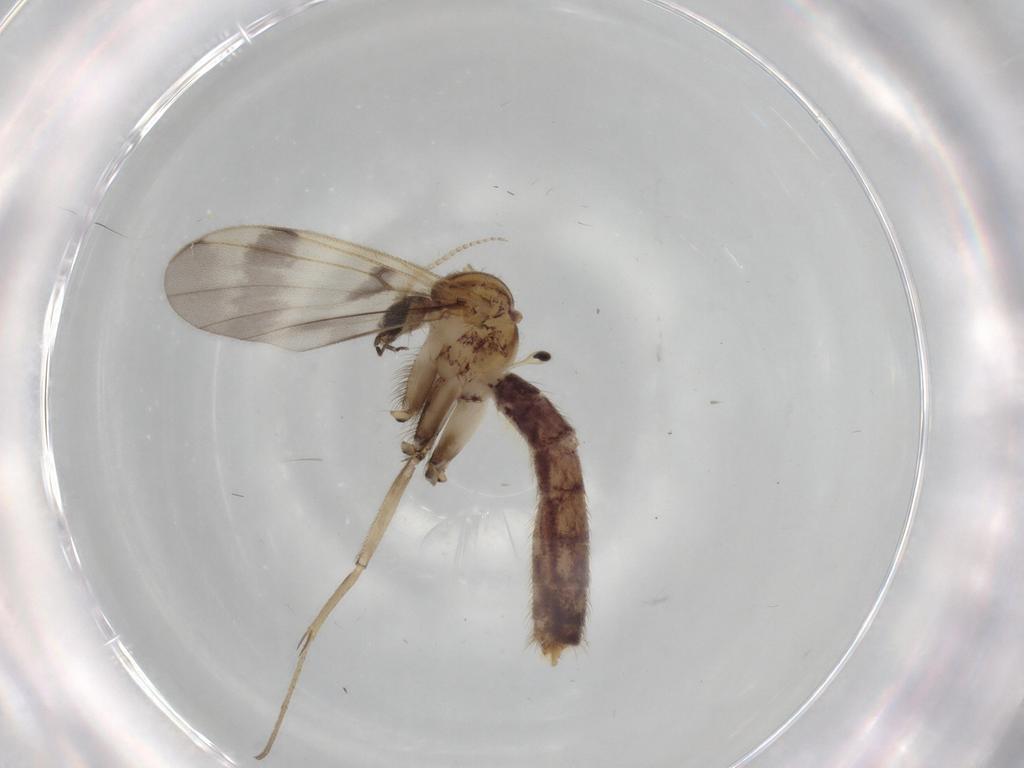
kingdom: Animalia
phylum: Arthropoda
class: Insecta
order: Diptera
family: Mycetophilidae
